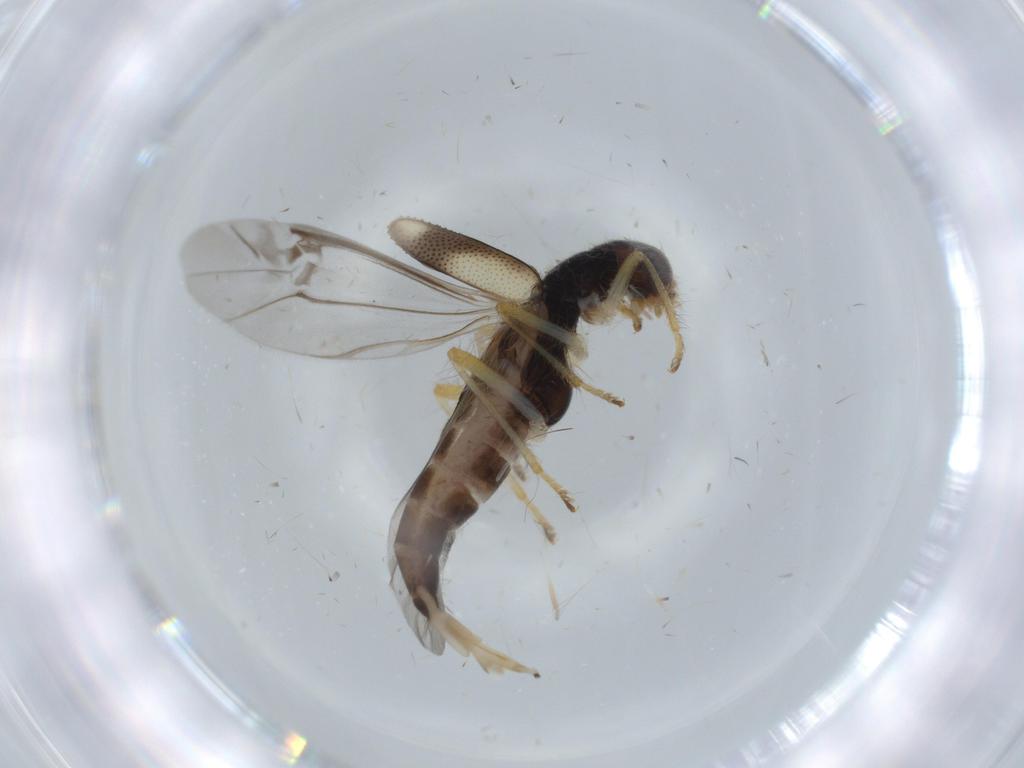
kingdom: Animalia
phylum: Arthropoda
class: Insecta
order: Coleoptera
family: Cleridae
